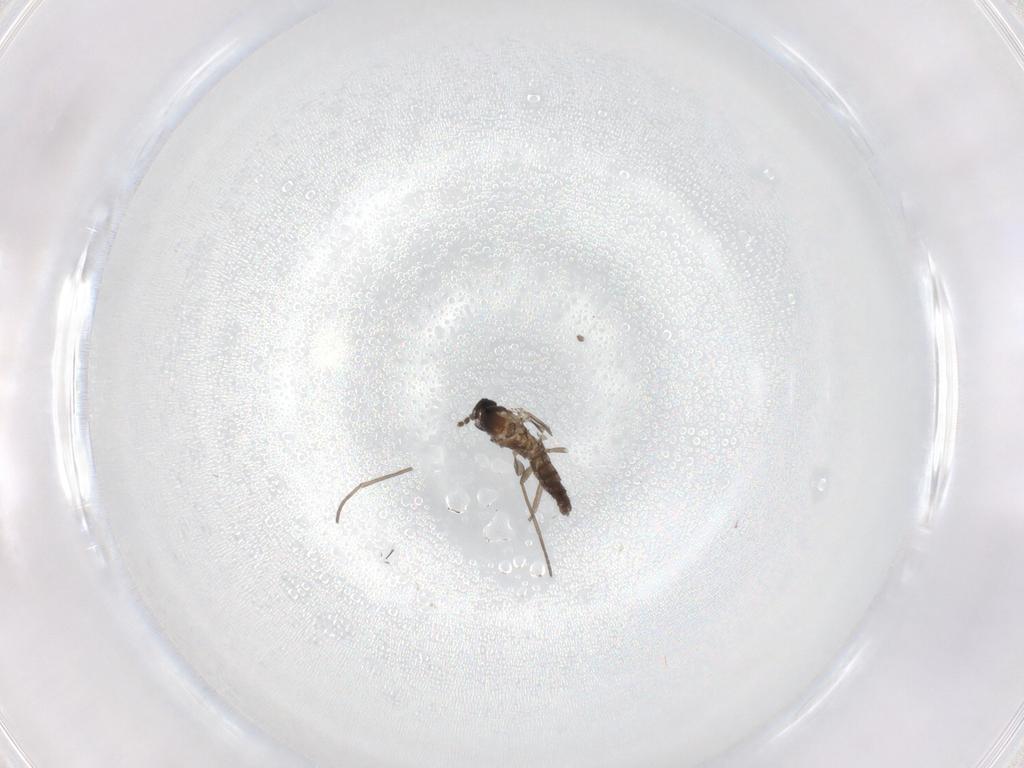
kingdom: Animalia
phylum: Arthropoda
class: Insecta
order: Diptera
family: Chironomidae
